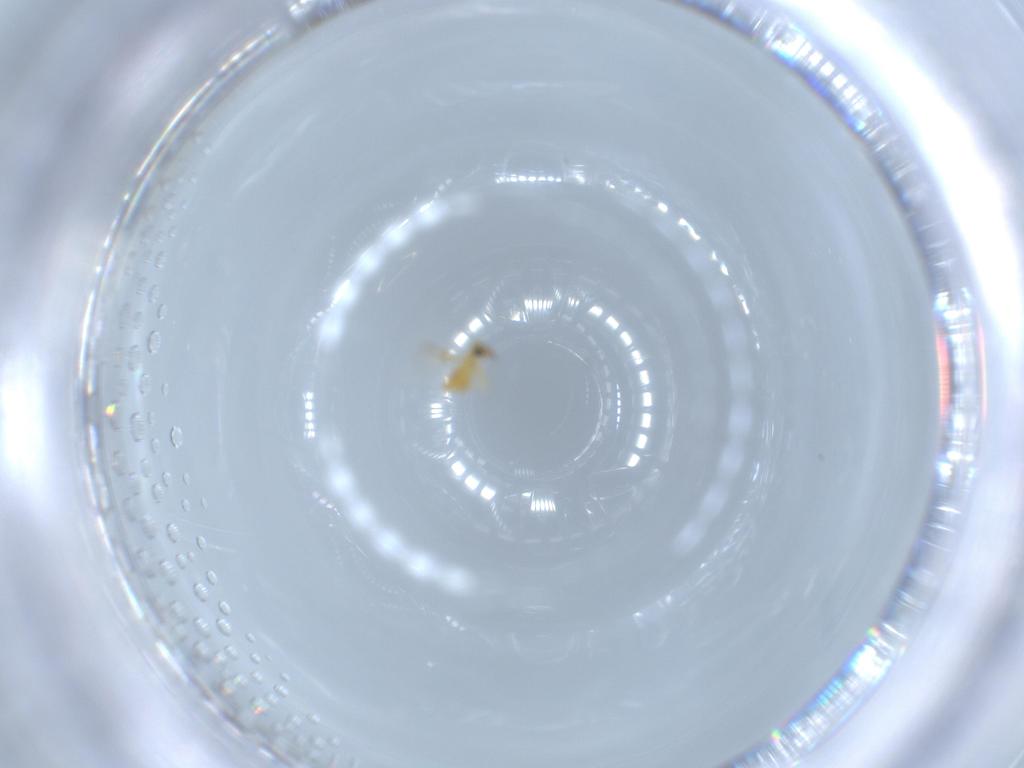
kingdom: Animalia
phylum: Arthropoda
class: Insecta
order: Hymenoptera
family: Signiphoridae
